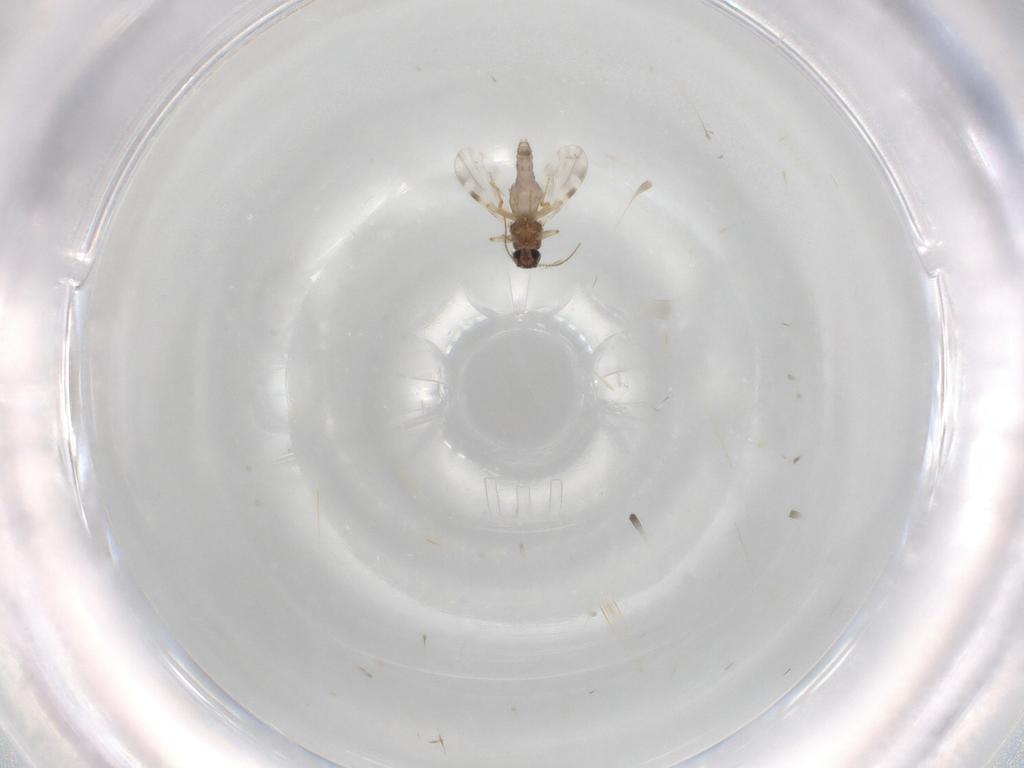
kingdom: Animalia
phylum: Arthropoda
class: Insecta
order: Diptera
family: Ceratopogonidae
